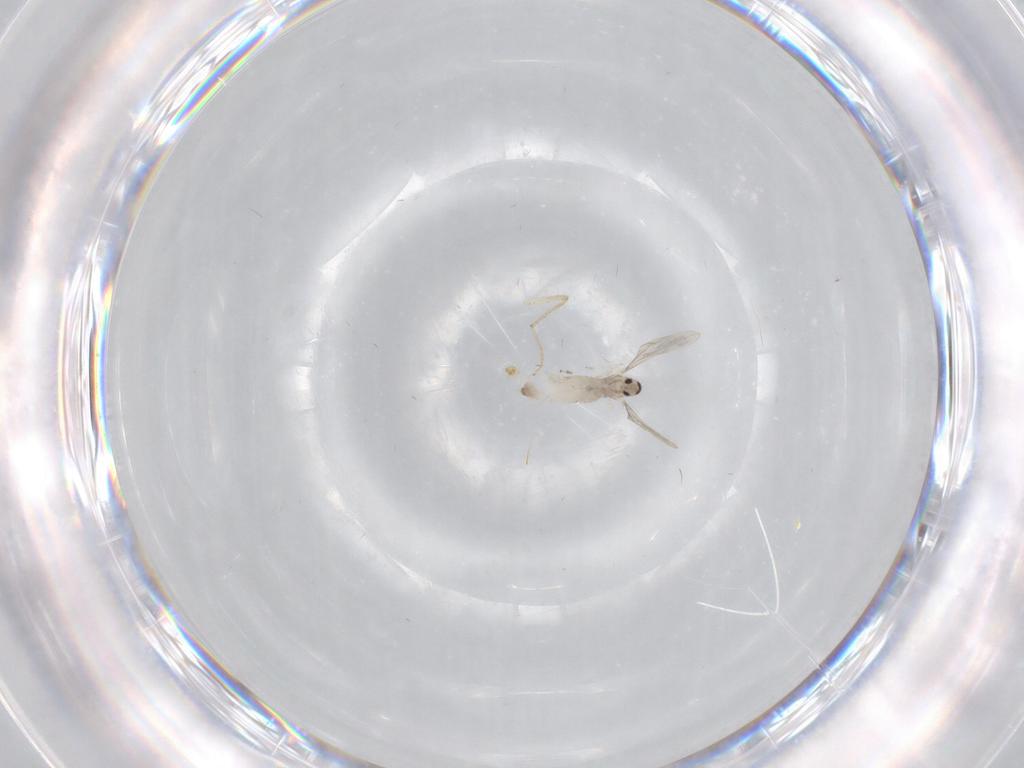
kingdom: Animalia
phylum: Arthropoda
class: Insecta
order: Diptera
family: Cecidomyiidae
